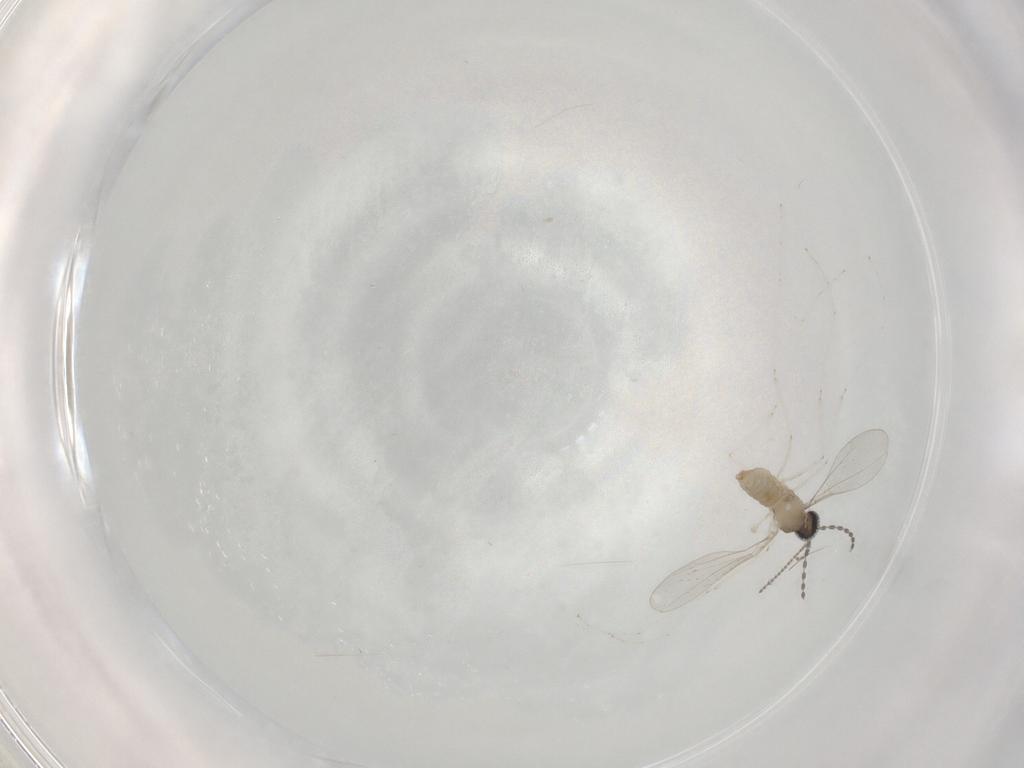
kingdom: Animalia
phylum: Arthropoda
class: Insecta
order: Diptera
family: Cecidomyiidae
